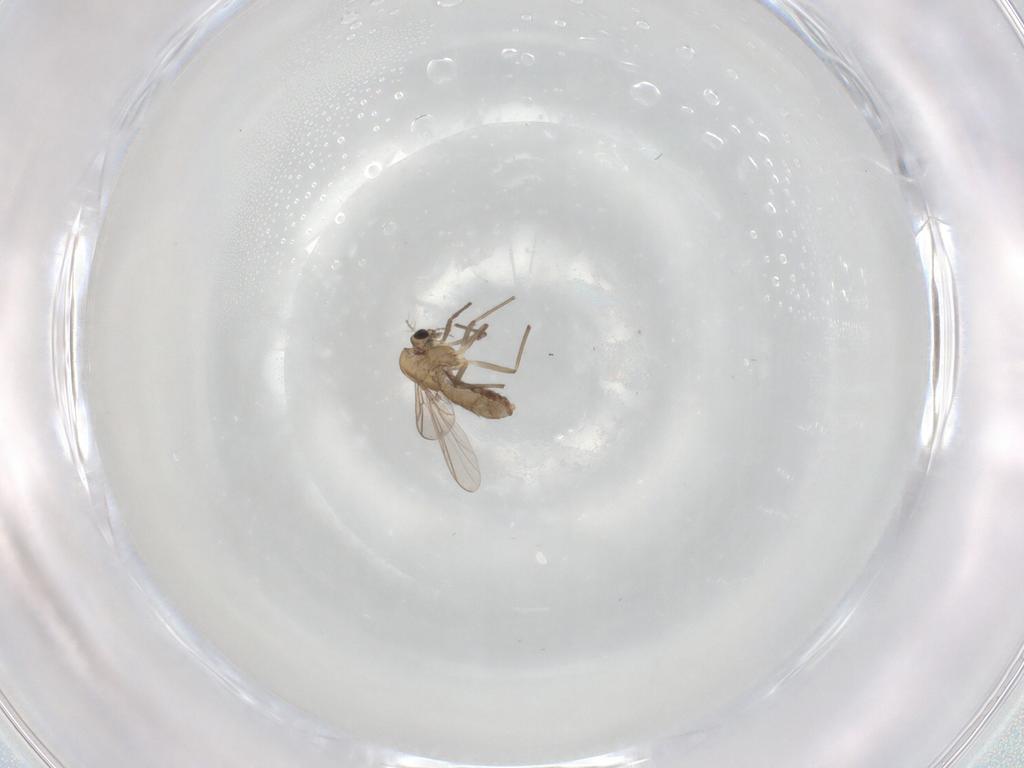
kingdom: Animalia
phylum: Arthropoda
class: Insecta
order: Diptera
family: Chironomidae
